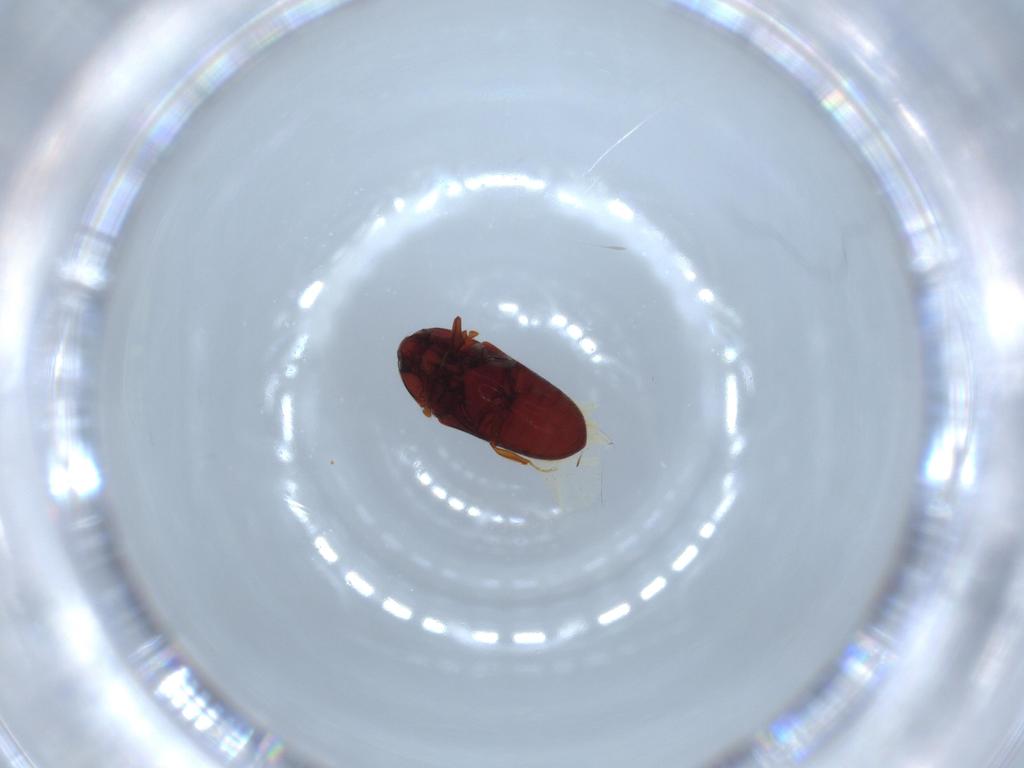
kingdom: Animalia
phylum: Arthropoda
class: Insecta
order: Coleoptera
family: Throscidae
